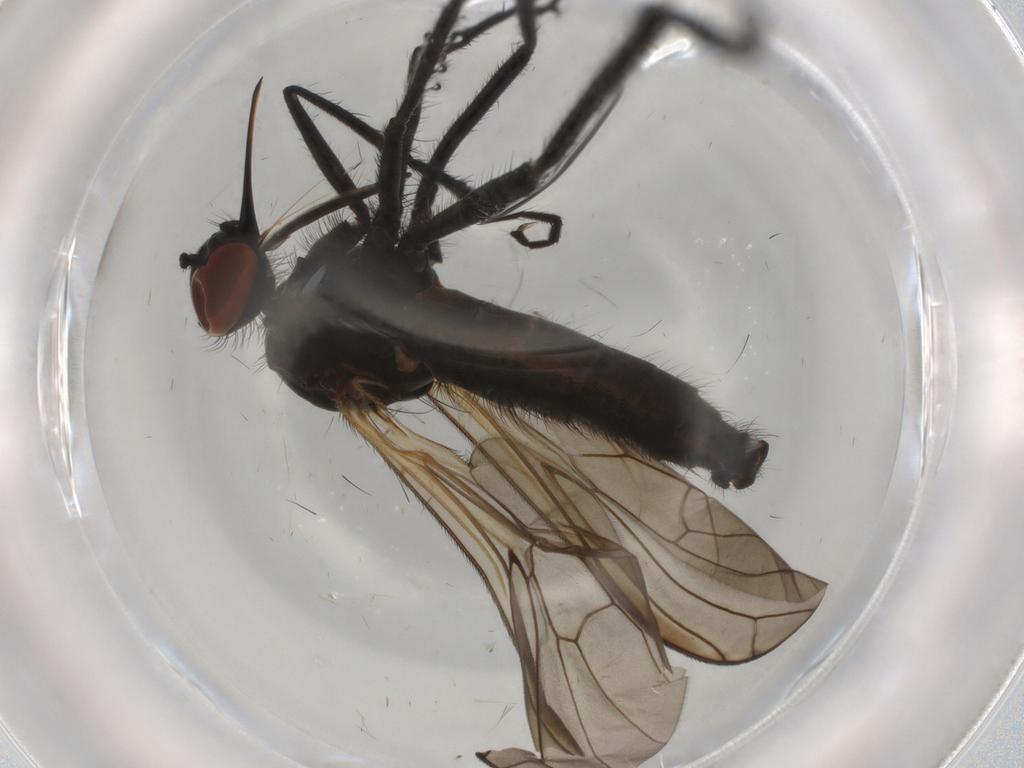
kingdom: Animalia
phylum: Arthropoda
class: Insecta
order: Diptera
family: Empididae
